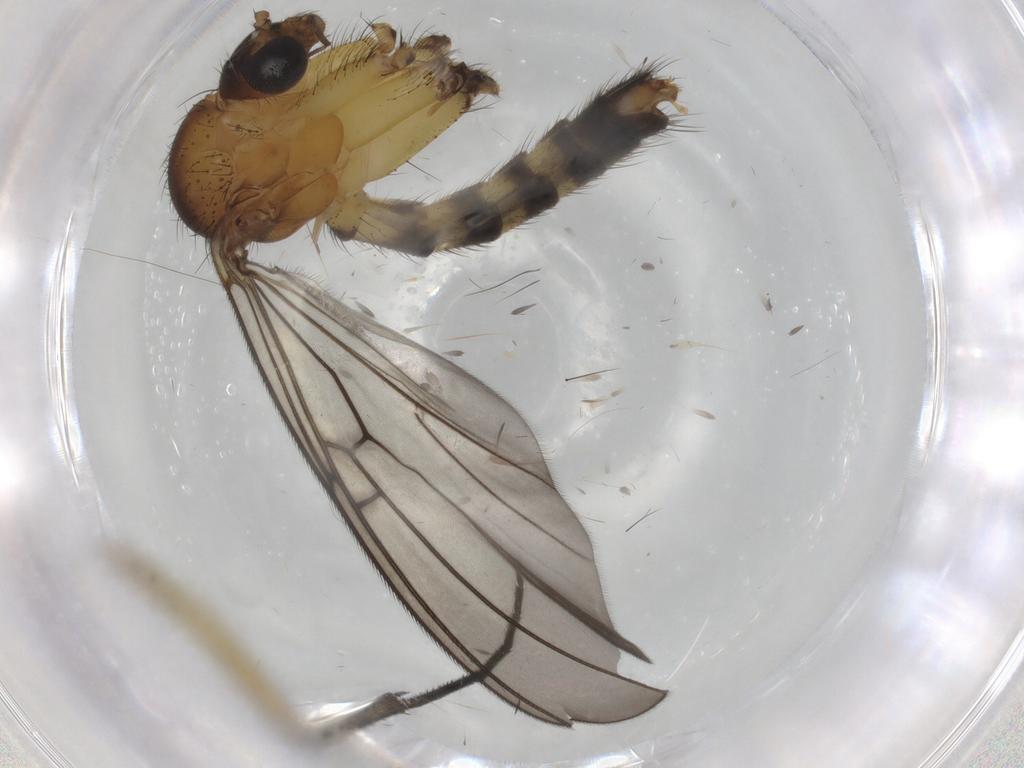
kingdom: Animalia
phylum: Arthropoda
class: Insecta
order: Diptera
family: Mycetophilidae
